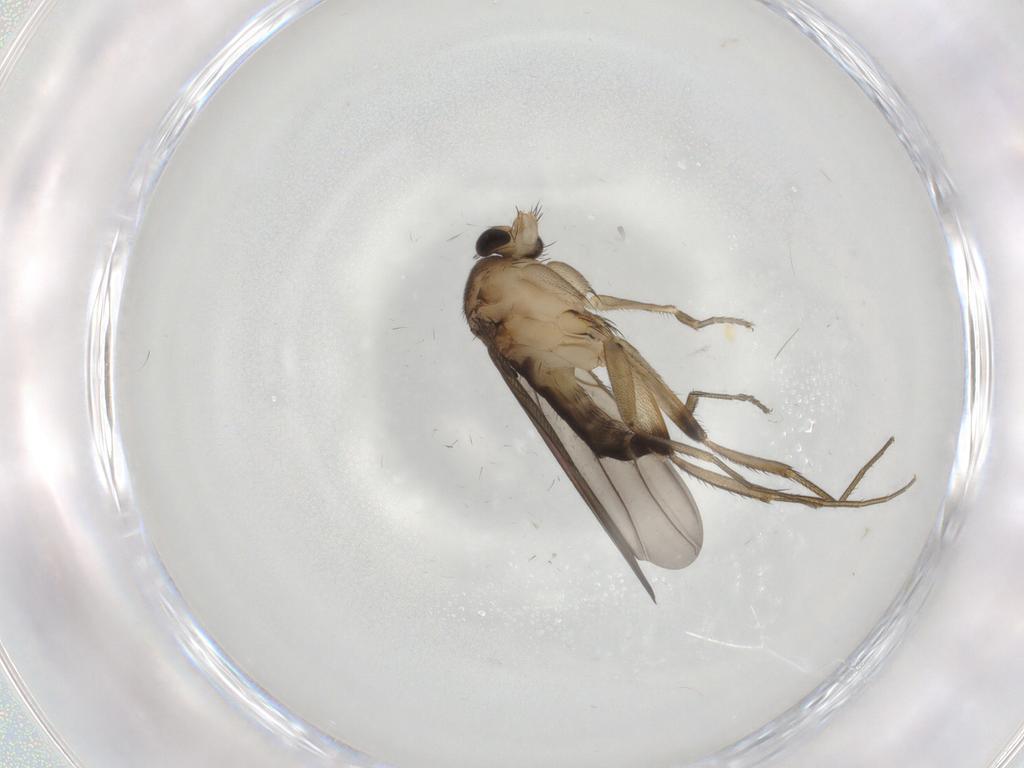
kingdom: Animalia
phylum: Arthropoda
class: Insecta
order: Diptera
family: Phoridae
